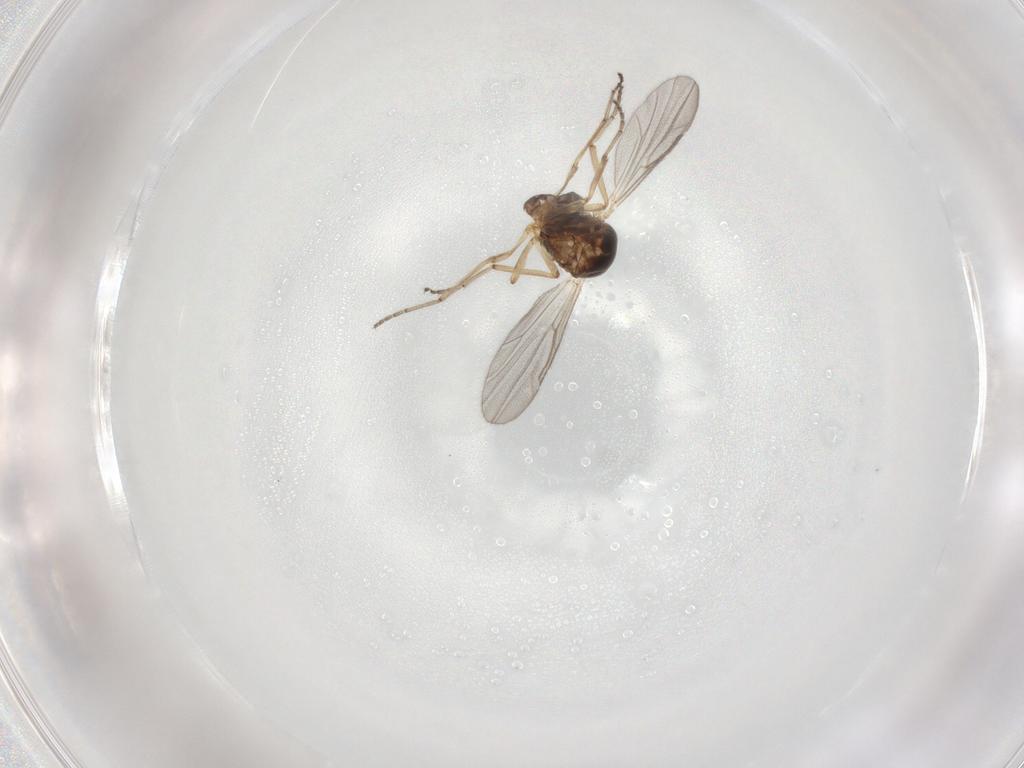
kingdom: Animalia
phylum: Arthropoda
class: Insecta
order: Diptera
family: Ceratopogonidae
